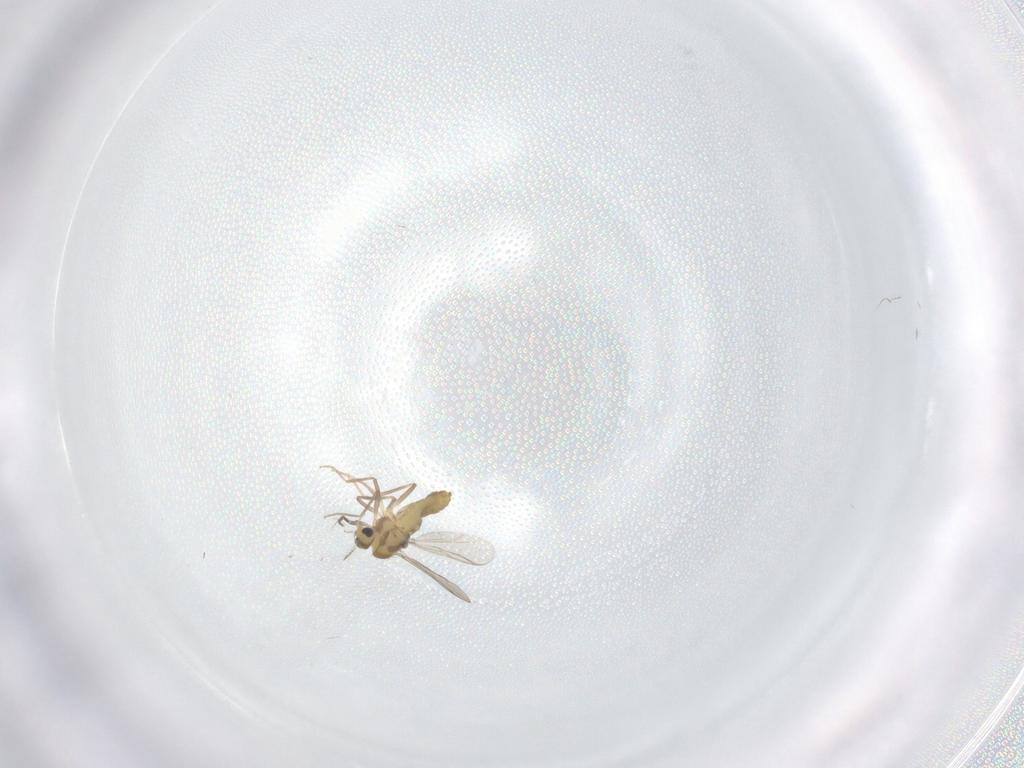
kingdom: Animalia
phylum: Arthropoda
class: Insecta
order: Diptera
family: Chironomidae
